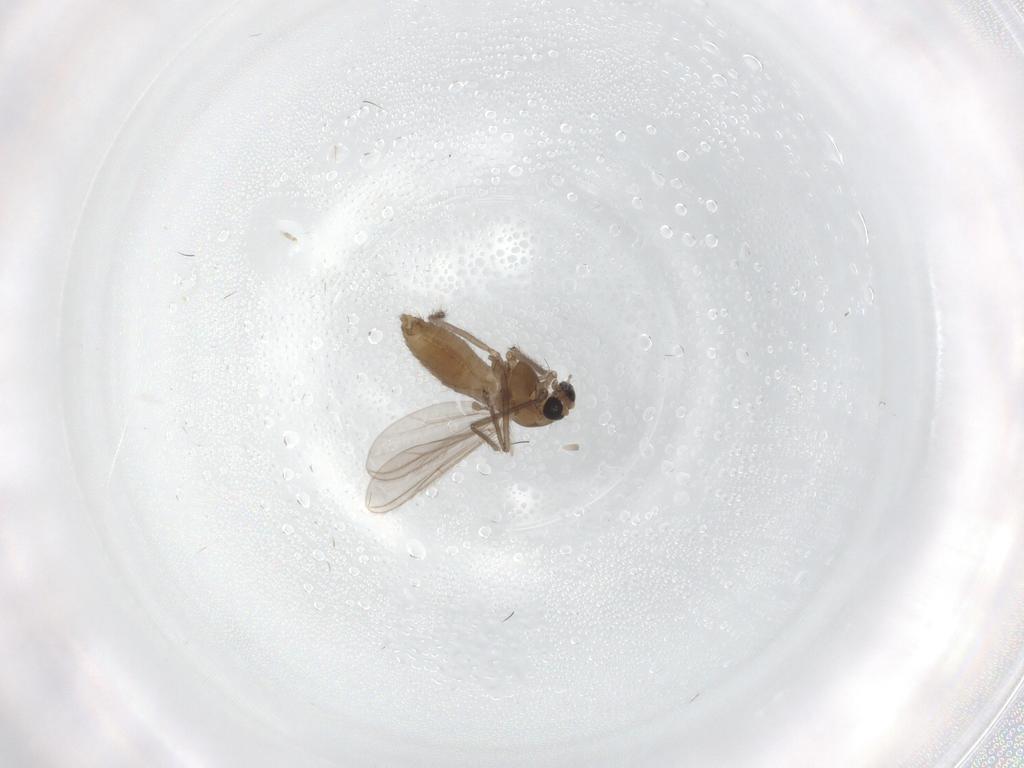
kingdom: Animalia
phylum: Arthropoda
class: Insecta
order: Diptera
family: Chironomidae
